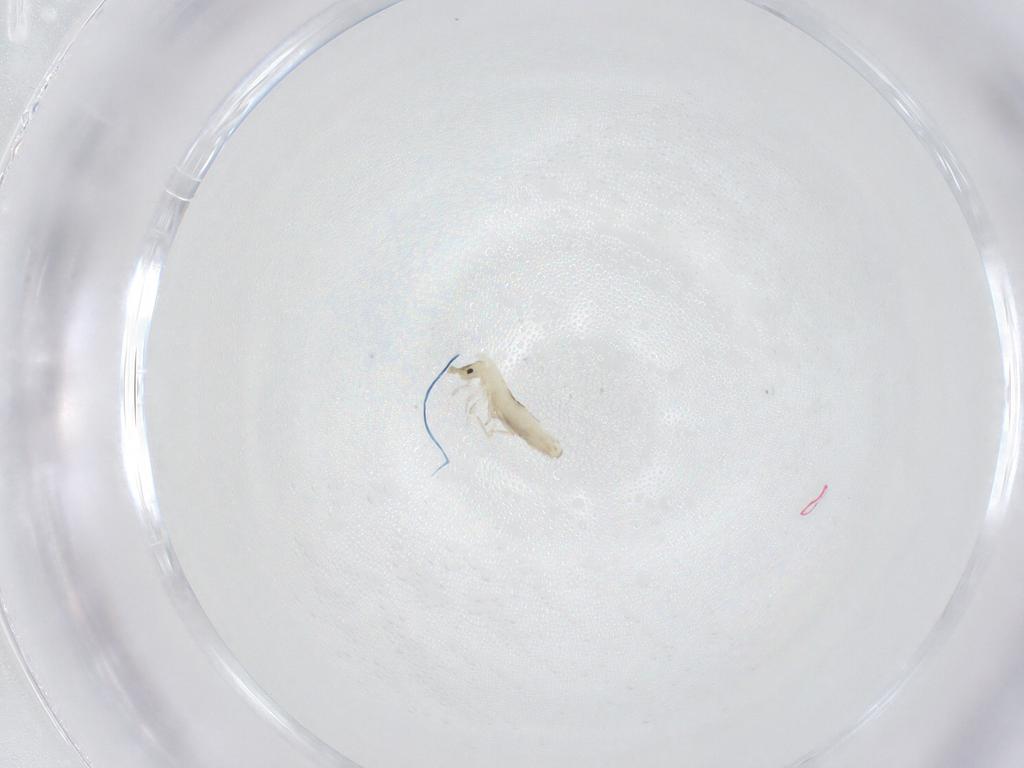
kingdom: Animalia
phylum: Arthropoda
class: Collembola
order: Entomobryomorpha
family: Entomobryidae
